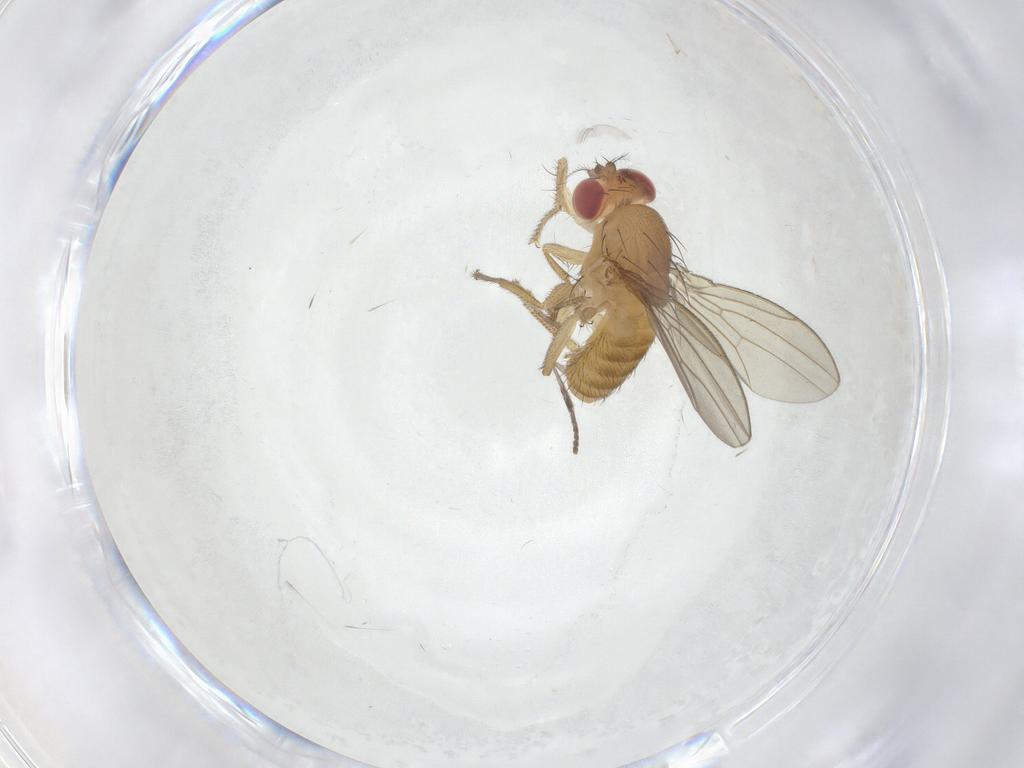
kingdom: Animalia
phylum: Arthropoda
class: Insecta
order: Diptera
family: Drosophilidae
